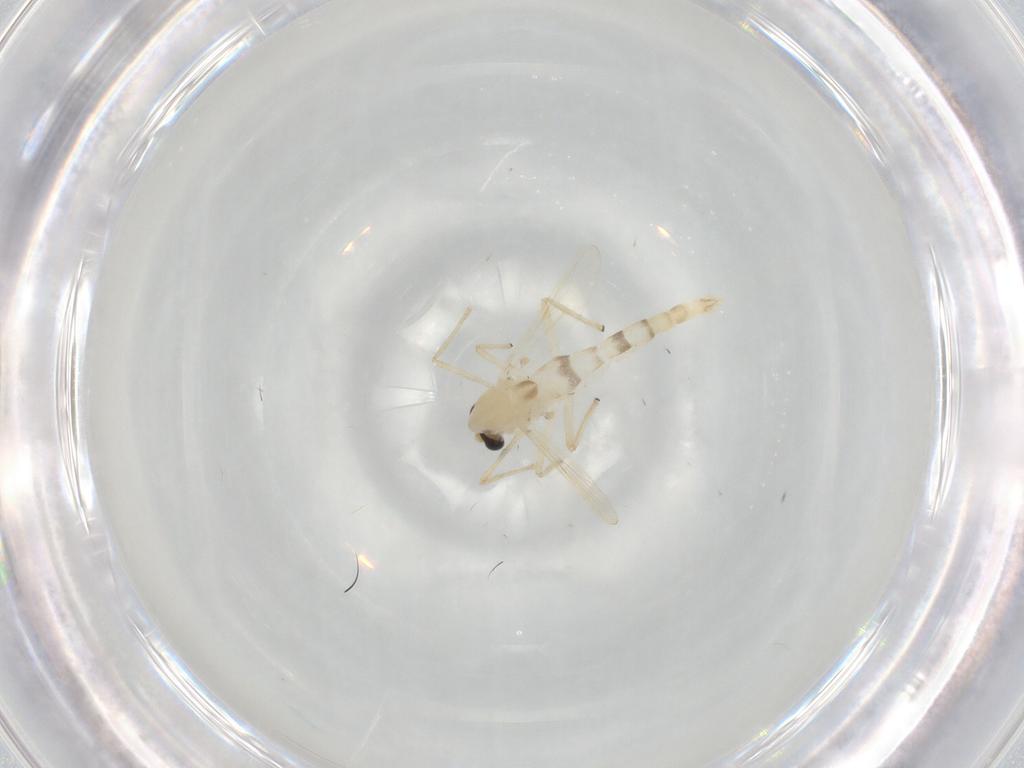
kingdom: Animalia
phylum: Arthropoda
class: Insecta
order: Diptera
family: Chironomidae
